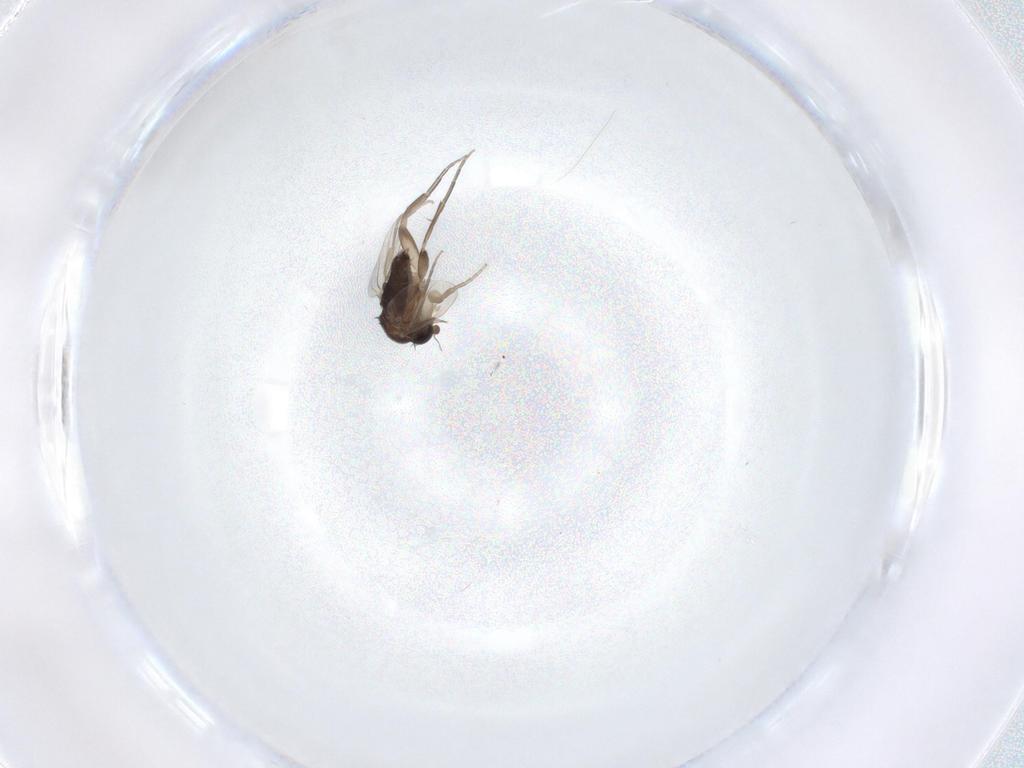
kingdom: Animalia
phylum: Arthropoda
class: Insecta
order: Diptera
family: Phoridae
